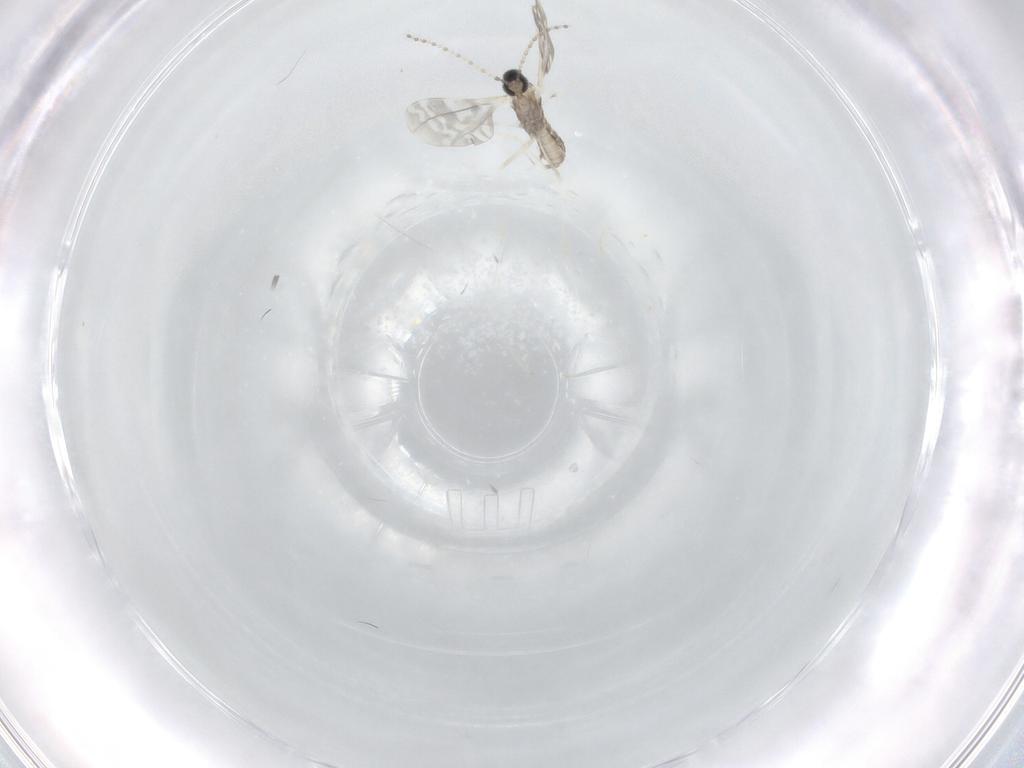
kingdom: Animalia
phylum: Arthropoda
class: Insecta
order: Diptera
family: Cecidomyiidae
